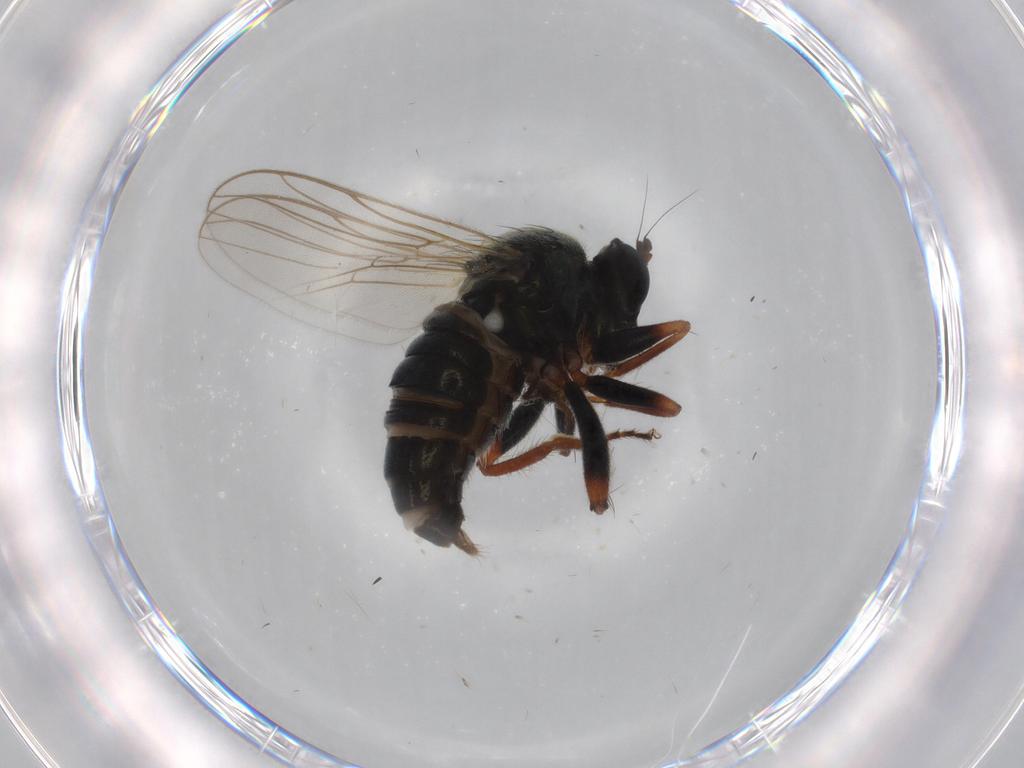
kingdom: Animalia
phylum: Arthropoda
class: Insecta
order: Diptera
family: Hybotidae
